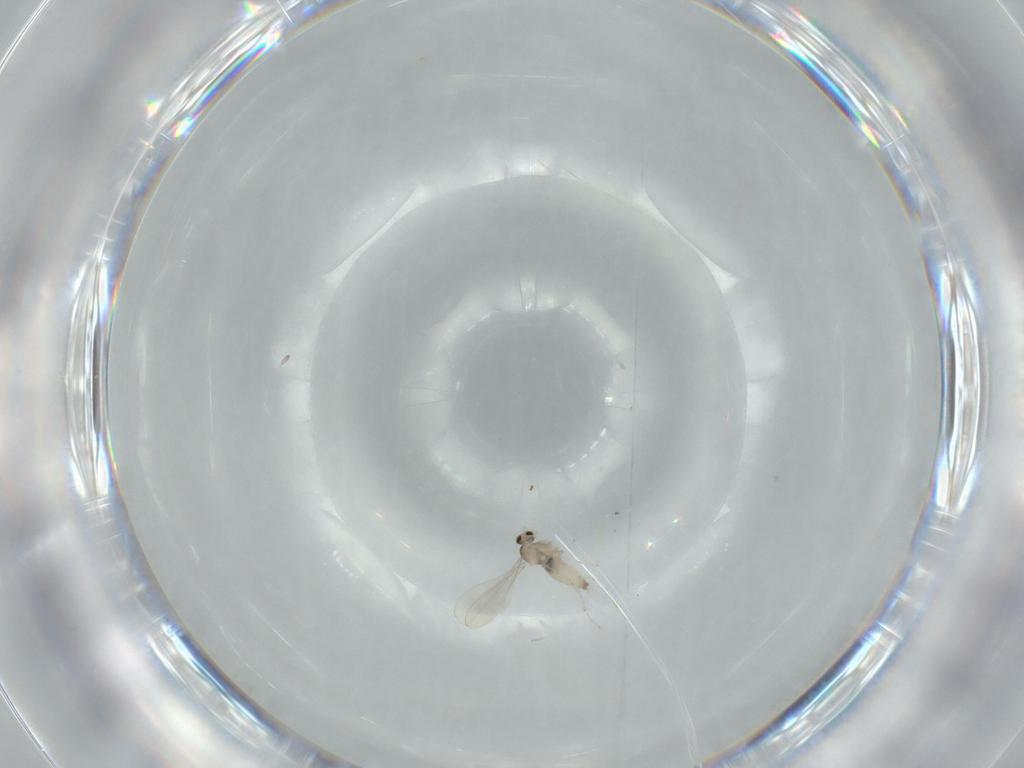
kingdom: Animalia
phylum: Arthropoda
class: Insecta
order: Diptera
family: Cecidomyiidae
